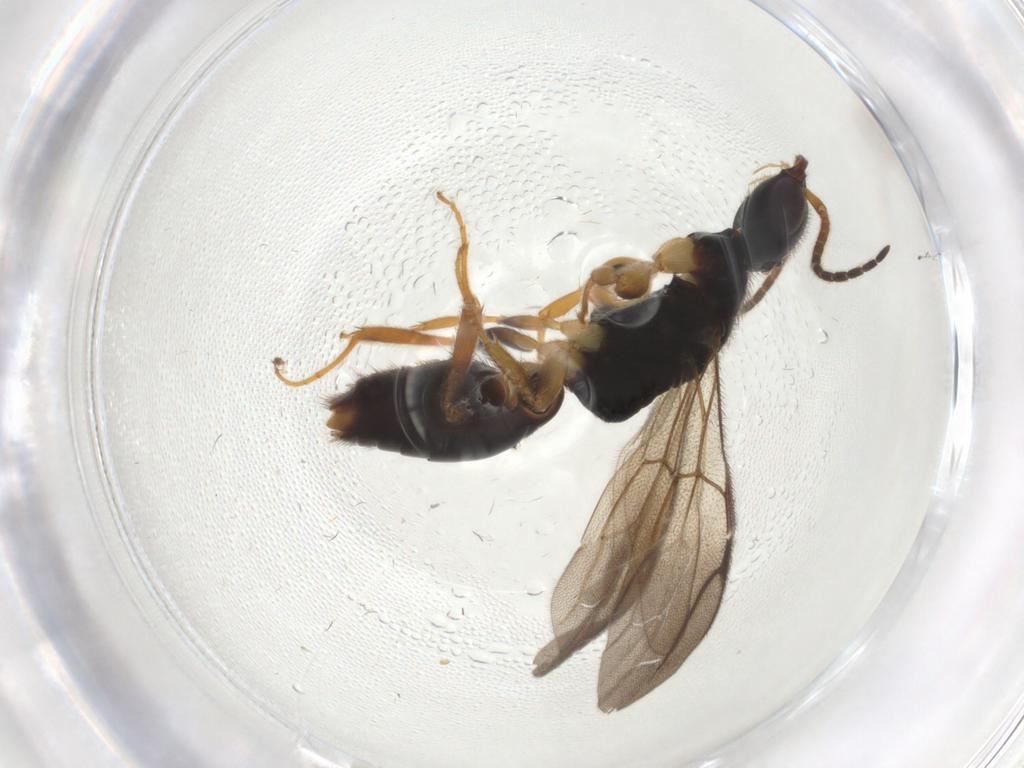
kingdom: Animalia
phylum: Arthropoda
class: Insecta
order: Hymenoptera
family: Bethylidae
